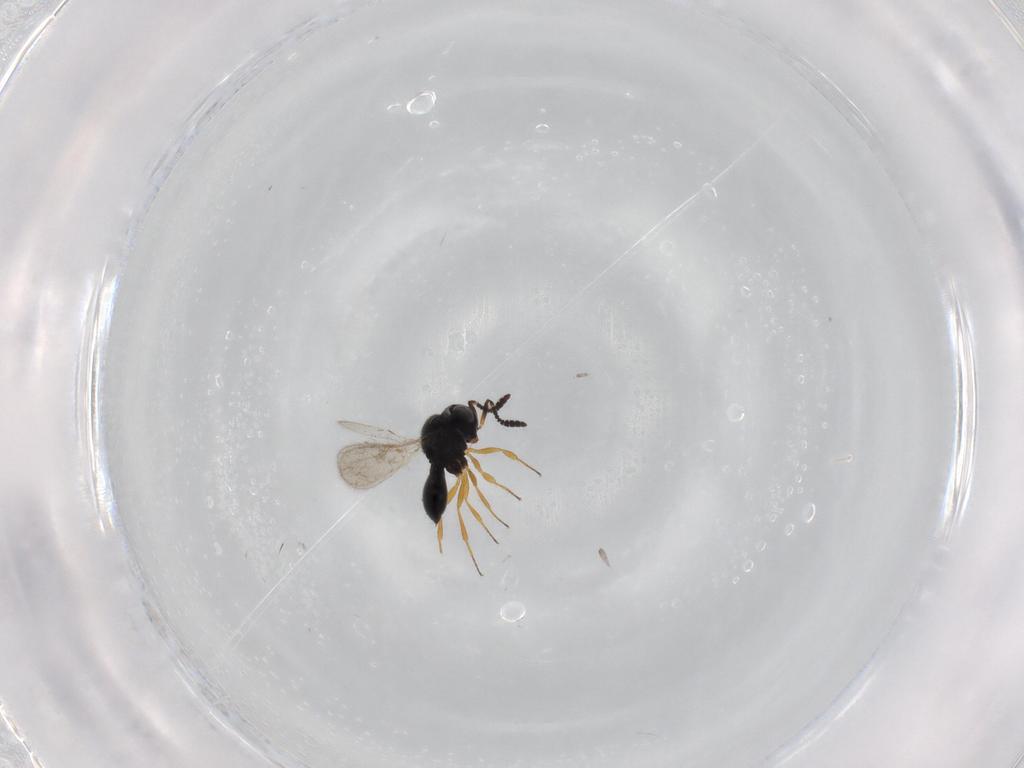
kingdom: Animalia
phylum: Arthropoda
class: Insecta
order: Hymenoptera
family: Scelionidae
